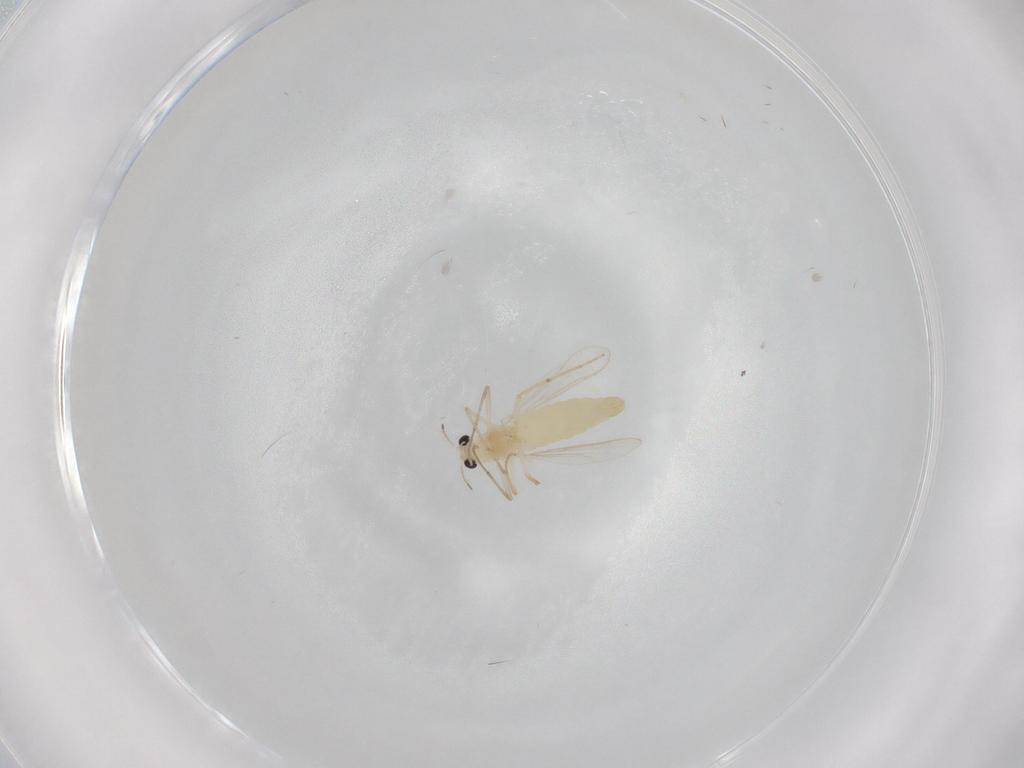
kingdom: Animalia
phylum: Arthropoda
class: Insecta
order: Diptera
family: Chironomidae
